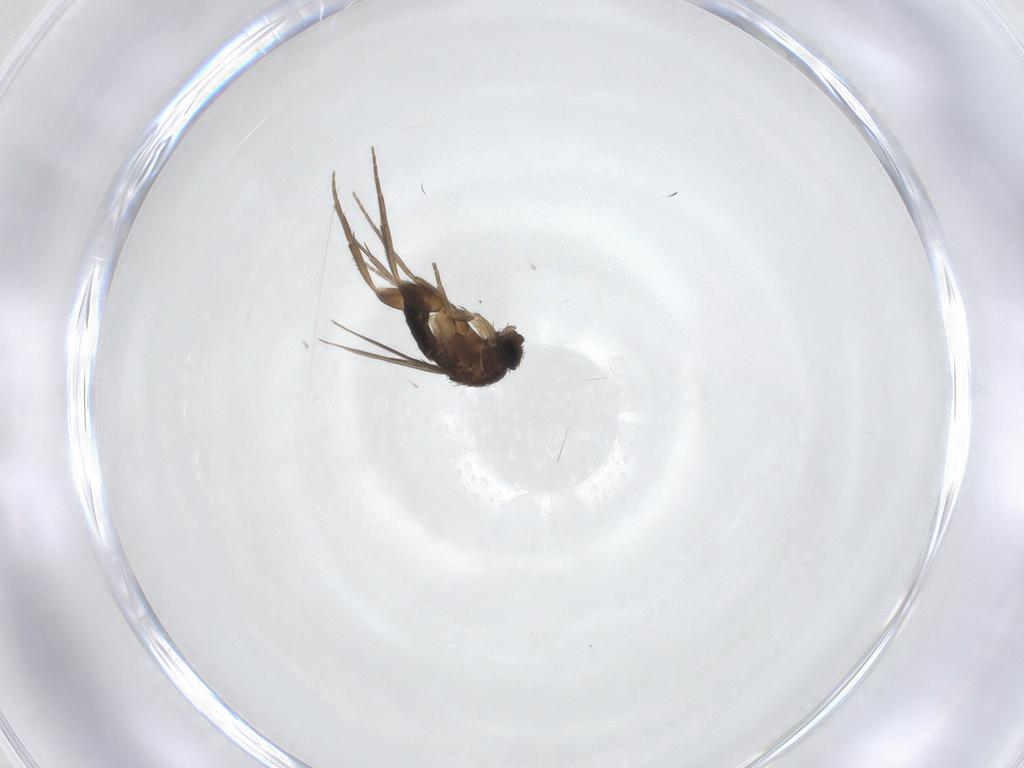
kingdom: Animalia
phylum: Arthropoda
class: Insecta
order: Diptera
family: Phoridae
